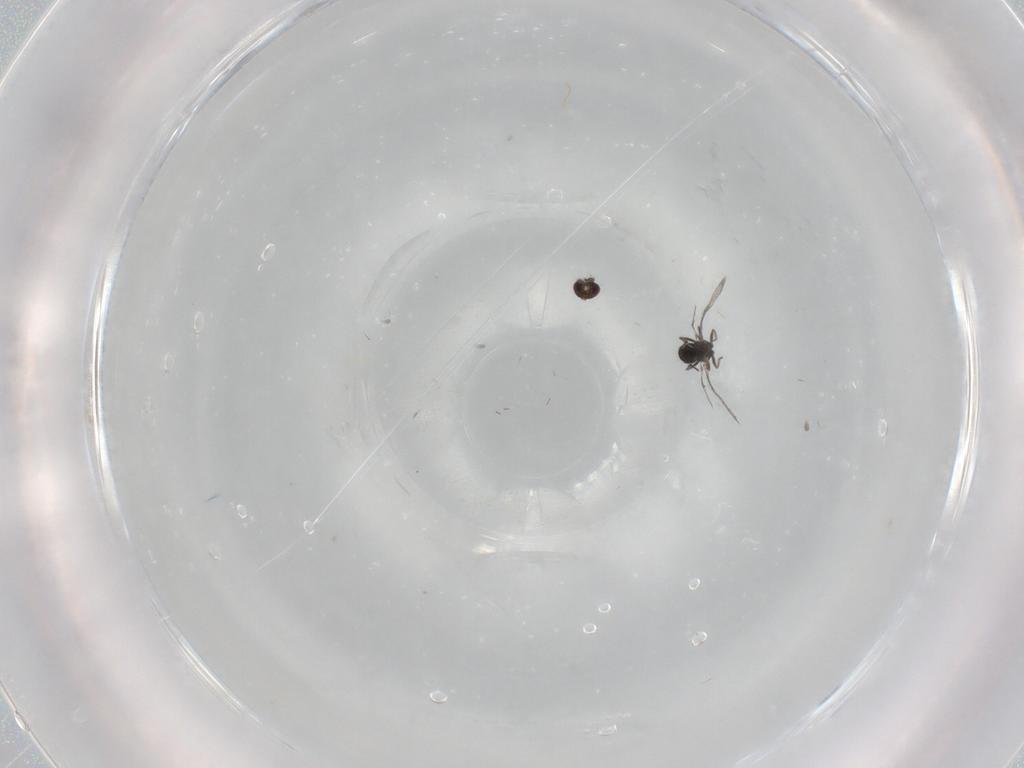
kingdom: Animalia
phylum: Arthropoda
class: Insecta
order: Hymenoptera
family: Trichogrammatidae
